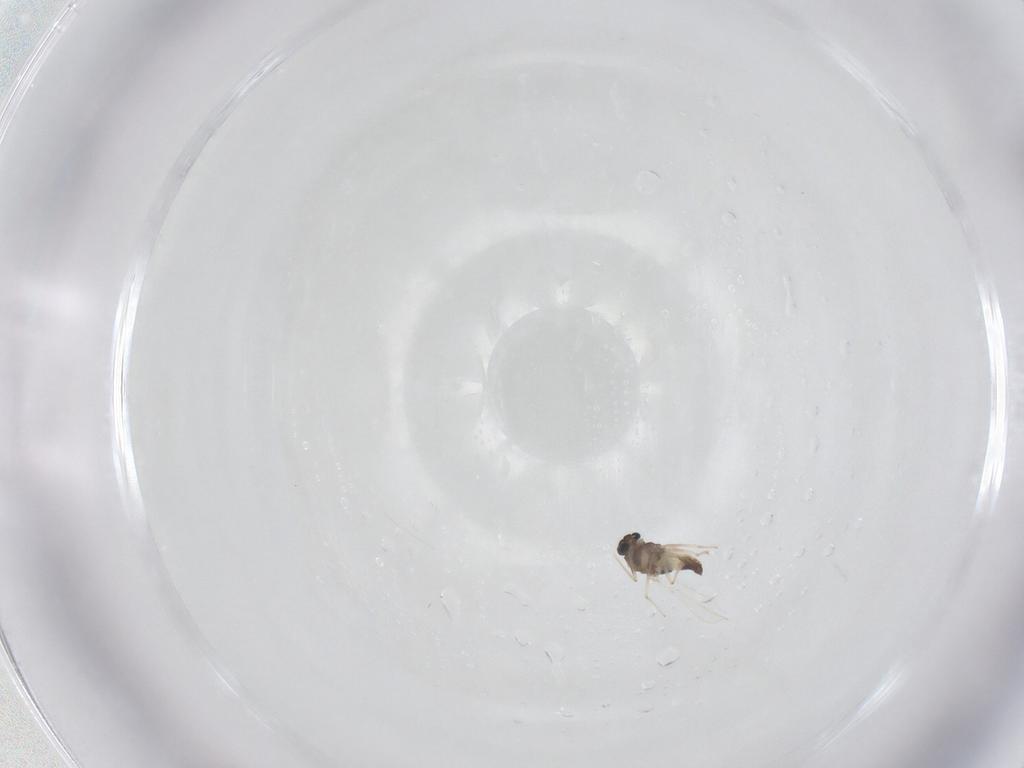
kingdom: Animalia
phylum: Arthropoda
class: Insecta
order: Diptera
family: Chironomidae
